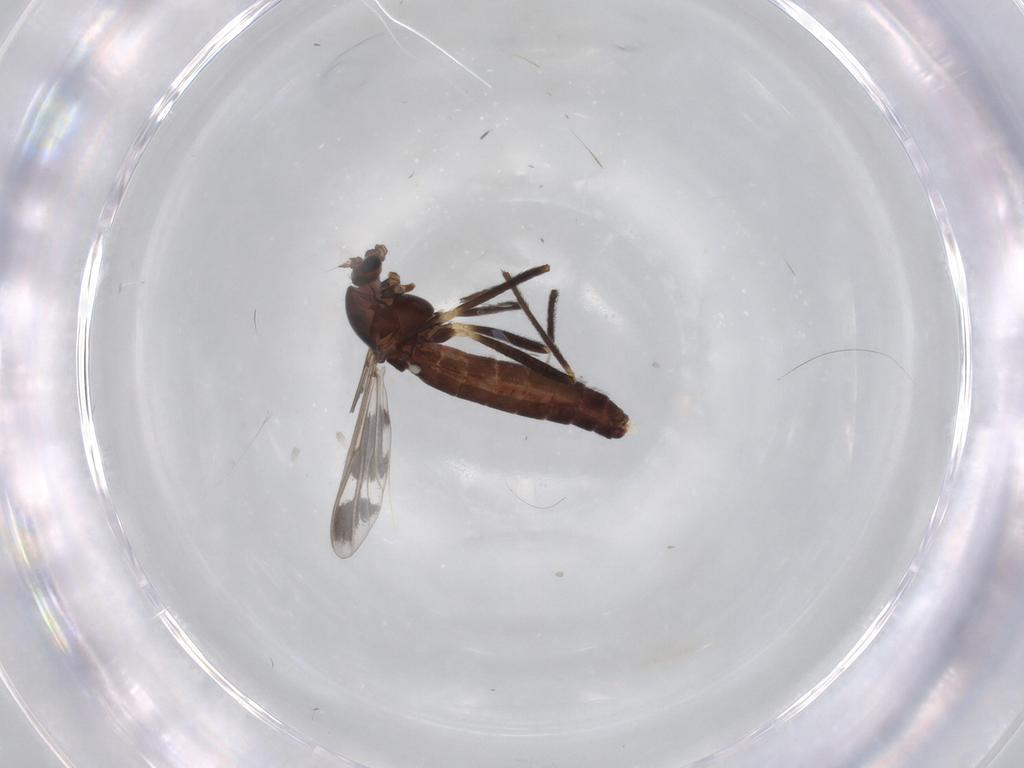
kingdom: Animalia
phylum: Arthropoda
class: Insecta
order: Diptera
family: Chironomidae
